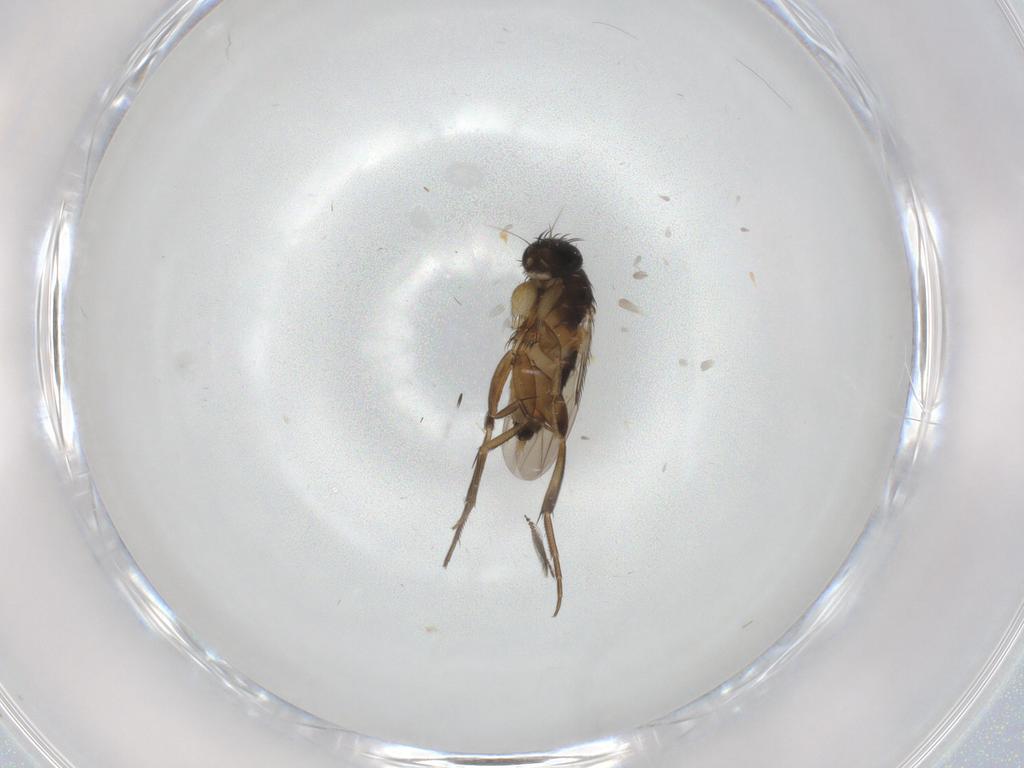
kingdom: Animalia
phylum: Arthropoda
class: Insecta
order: Diptera
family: Phoridae
